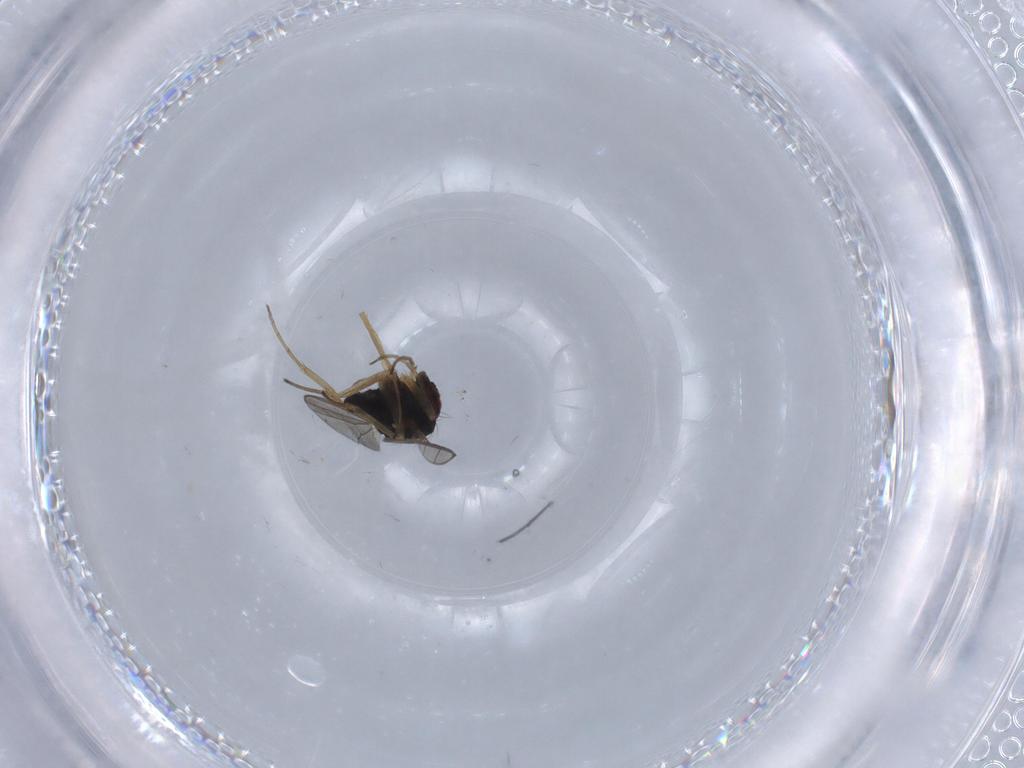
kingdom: Animalia
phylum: Arthropoda
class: Insecta
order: Diptera
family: Dolichopodidae
